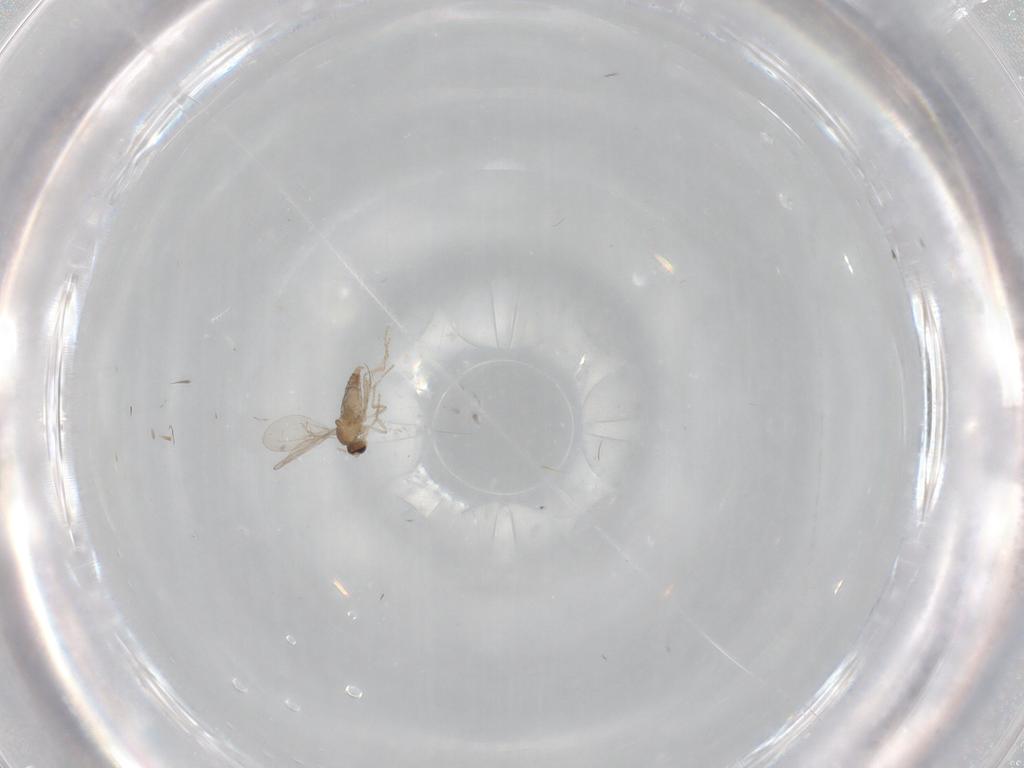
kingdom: Animalia
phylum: Arthropoda
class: Insecta
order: Diptera
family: Cecidomyiidae
